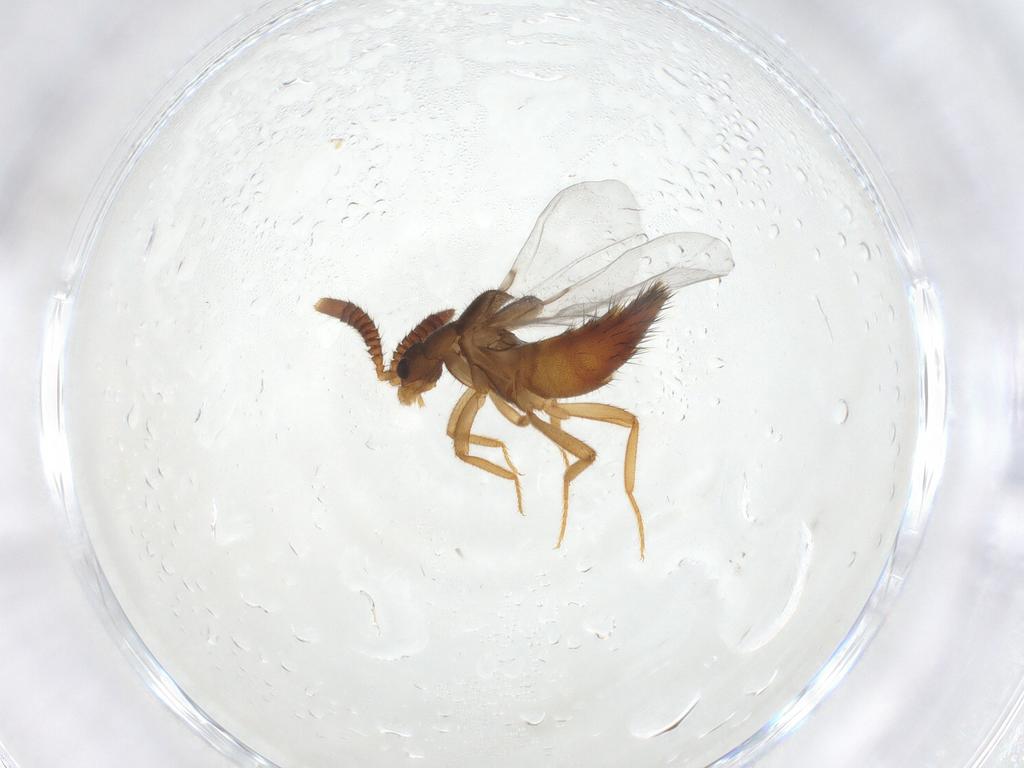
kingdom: Animalia
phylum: Arthropoda
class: Insecta
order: Coleoptera
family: Staphylinidae
